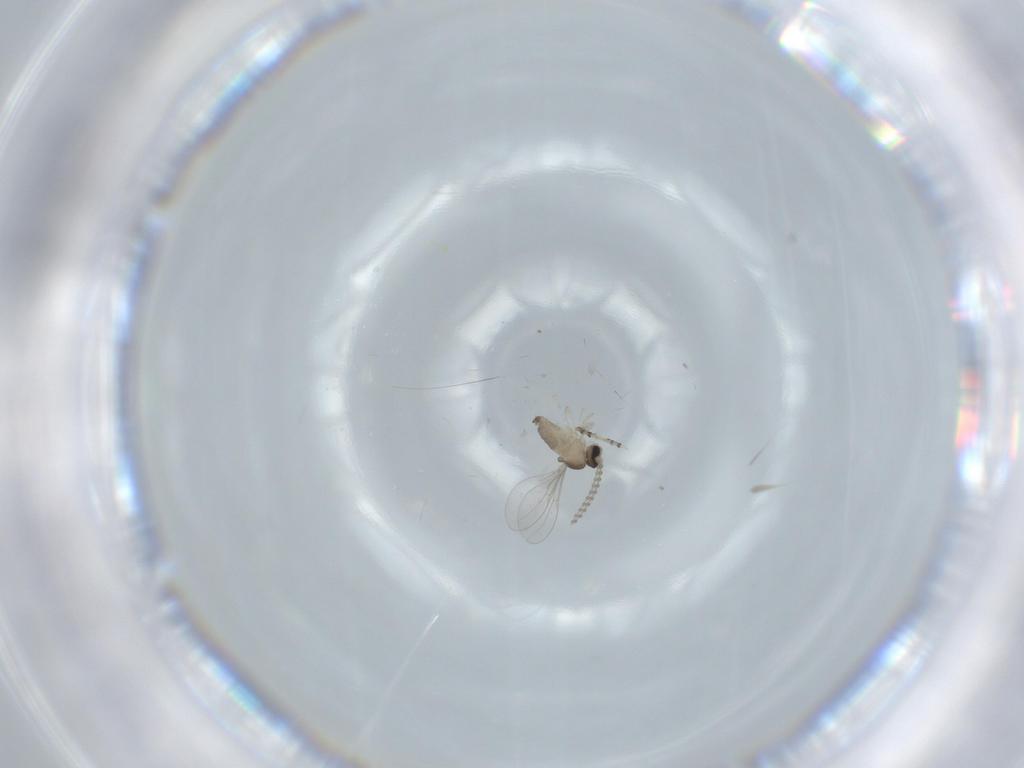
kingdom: Animalia
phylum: Arthropoda
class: Insecta
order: Diptera
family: Cecidomyiidae
